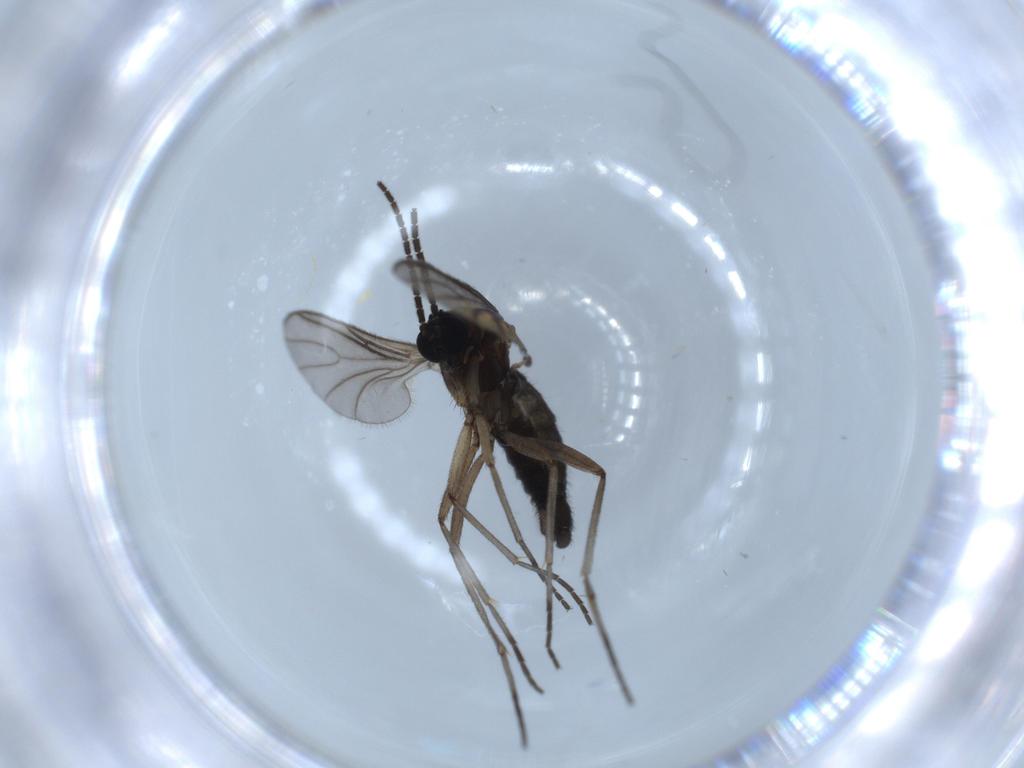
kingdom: Animalia
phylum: Arthropoda
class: Insecta
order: Diptera
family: Sciaridae
